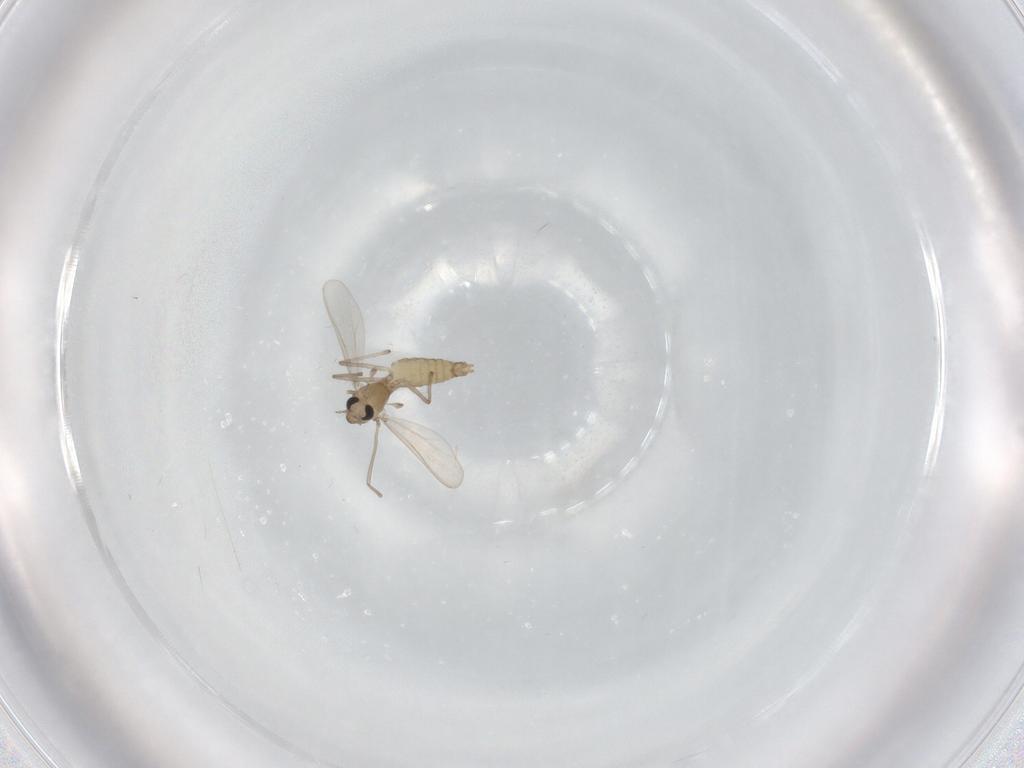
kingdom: Animalia
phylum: Arthropoda
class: Insecta
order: Diptera
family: Chironomidae
